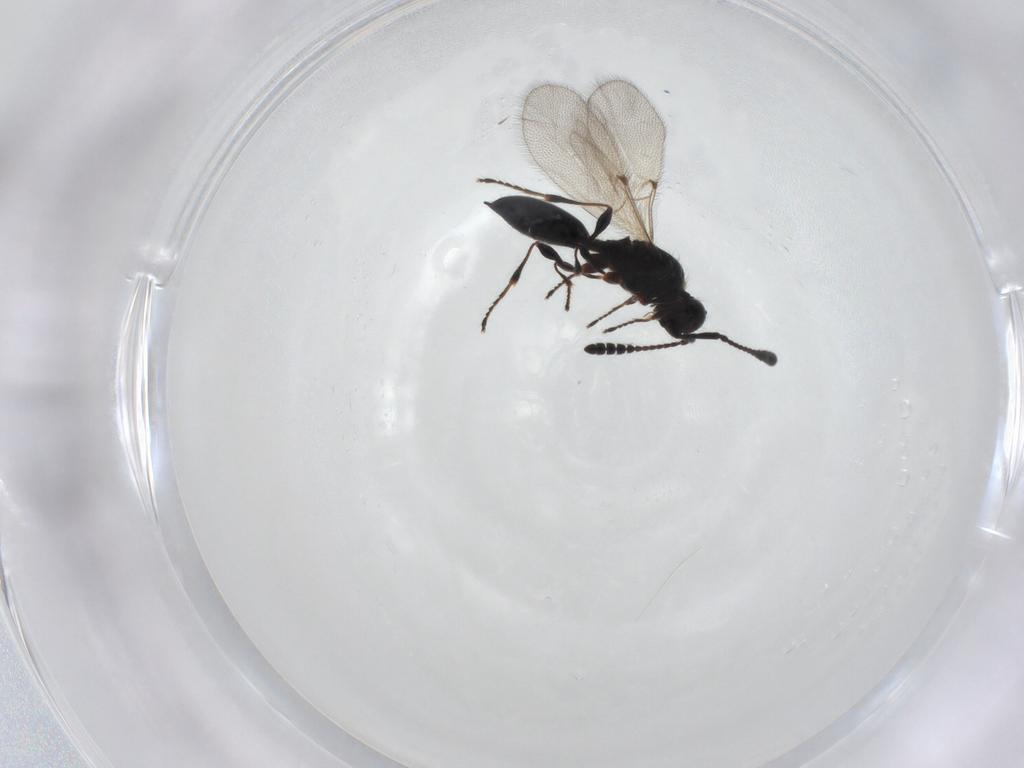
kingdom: Animalia
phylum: Arthropoda
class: Insecta
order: Hymenoptera
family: Diapriidae
